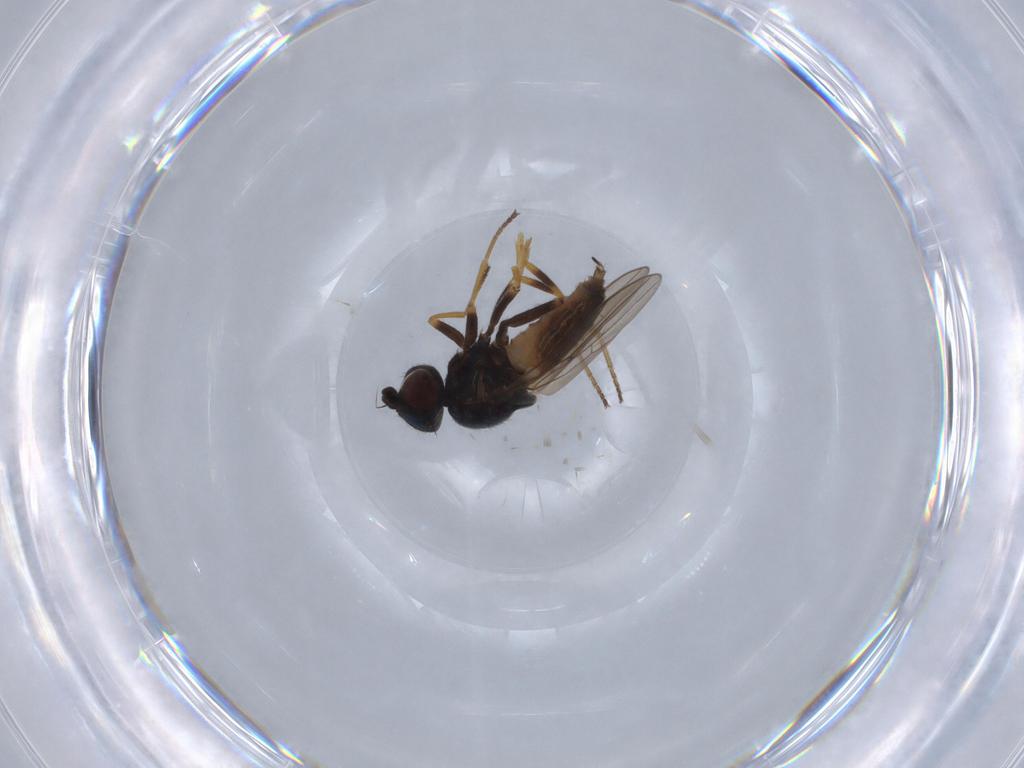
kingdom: Animalia
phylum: Arthropoda
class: Insecta
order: Diptera
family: Chloropidae
